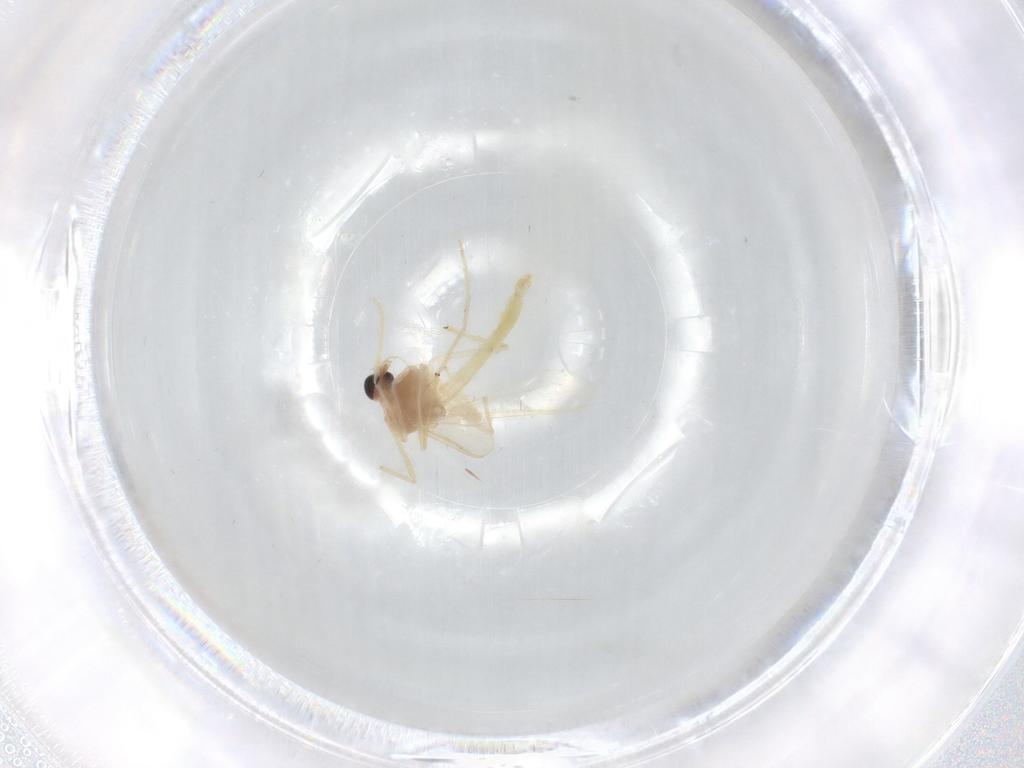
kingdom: Animalia
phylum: Arthropoda
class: Insecta
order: Diptera
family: Chironomidae
